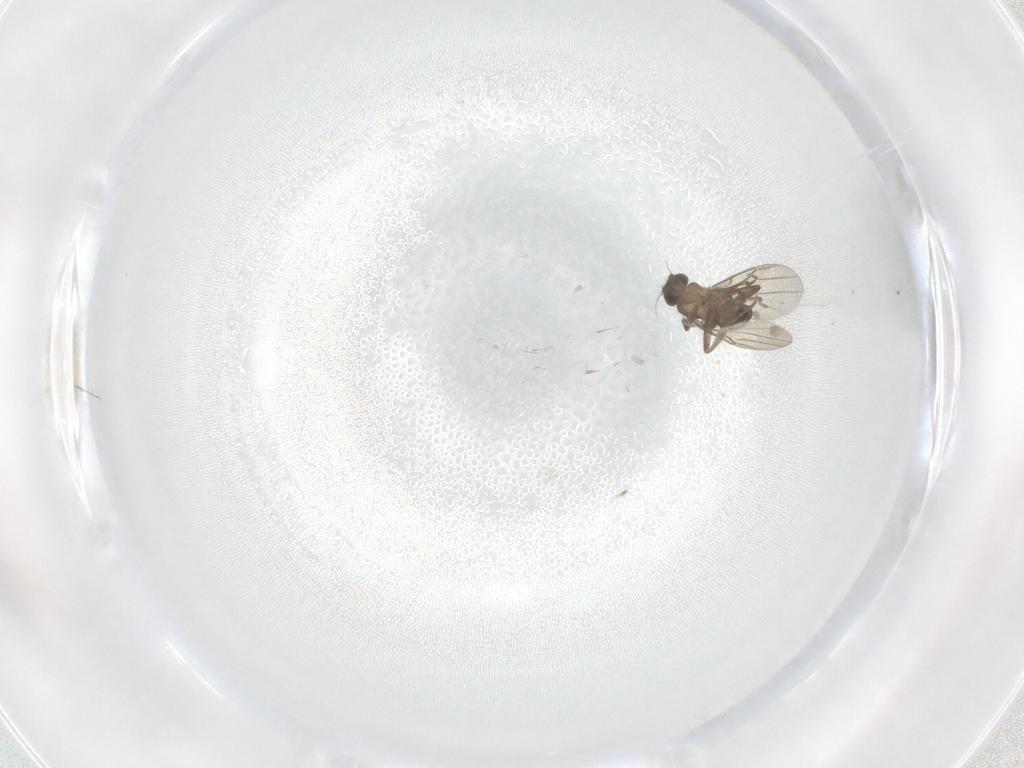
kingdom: Animalia
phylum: Arthropoda
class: Insecta
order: Diptera
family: Phoridae
